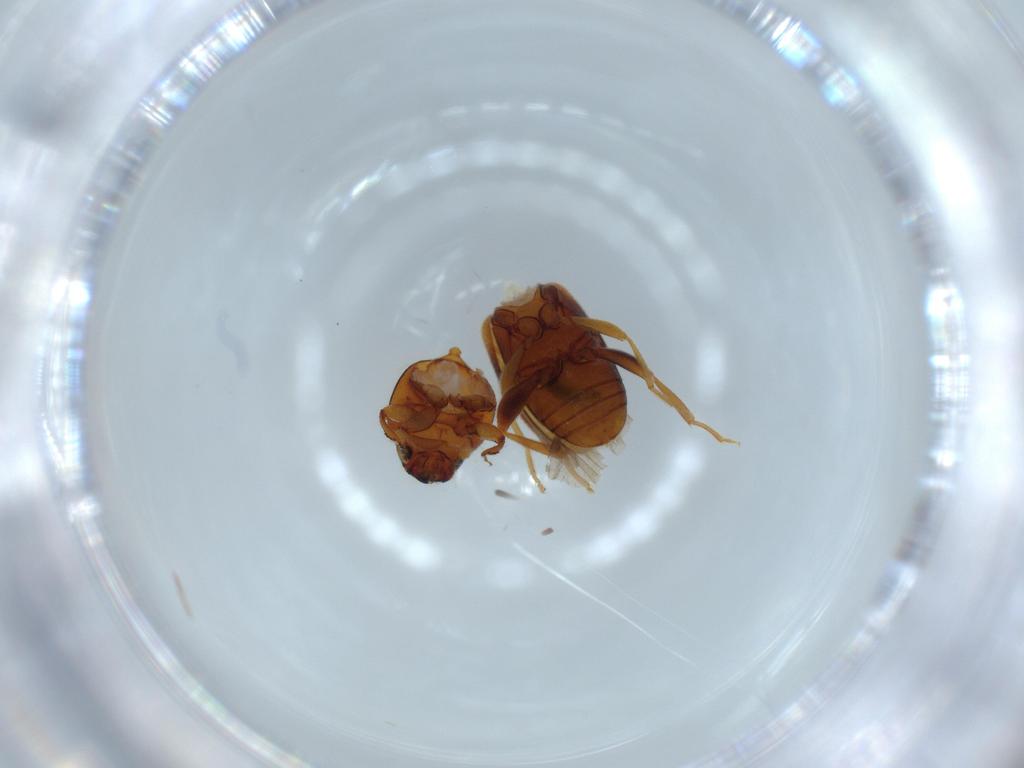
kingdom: Animalia
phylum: Arthropoda
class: Insecta
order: Coleoptera
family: Aderidae
